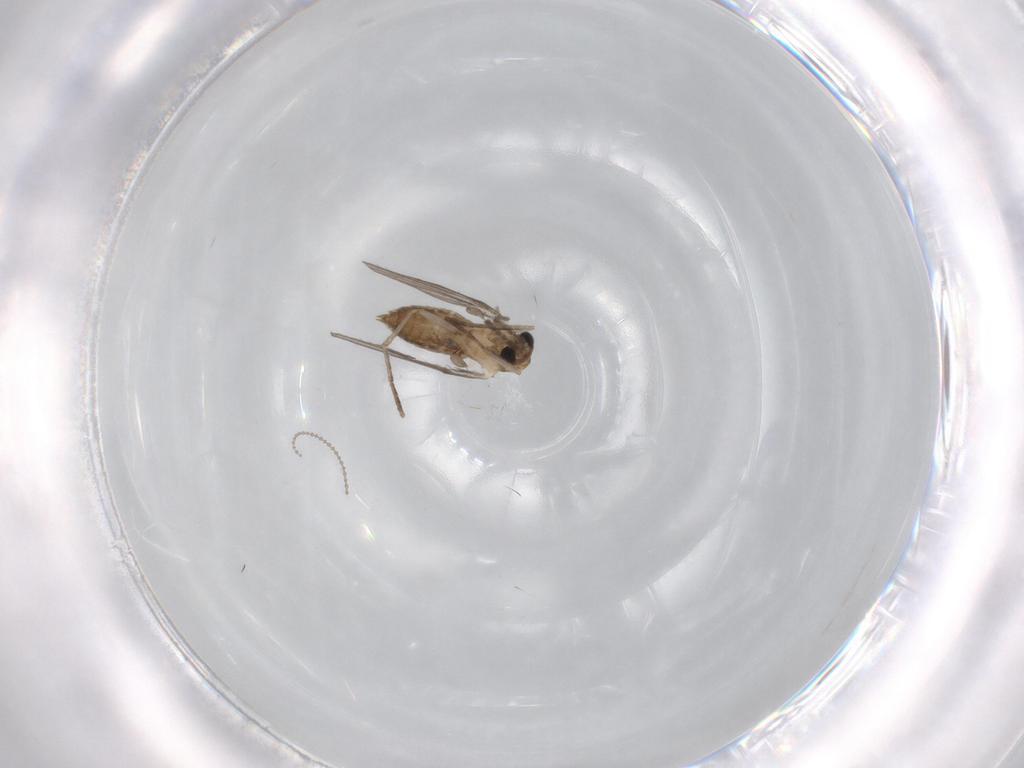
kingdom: Animalia
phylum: Arthropoda
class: Insecta
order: Diptera
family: Cecidomyiidae
